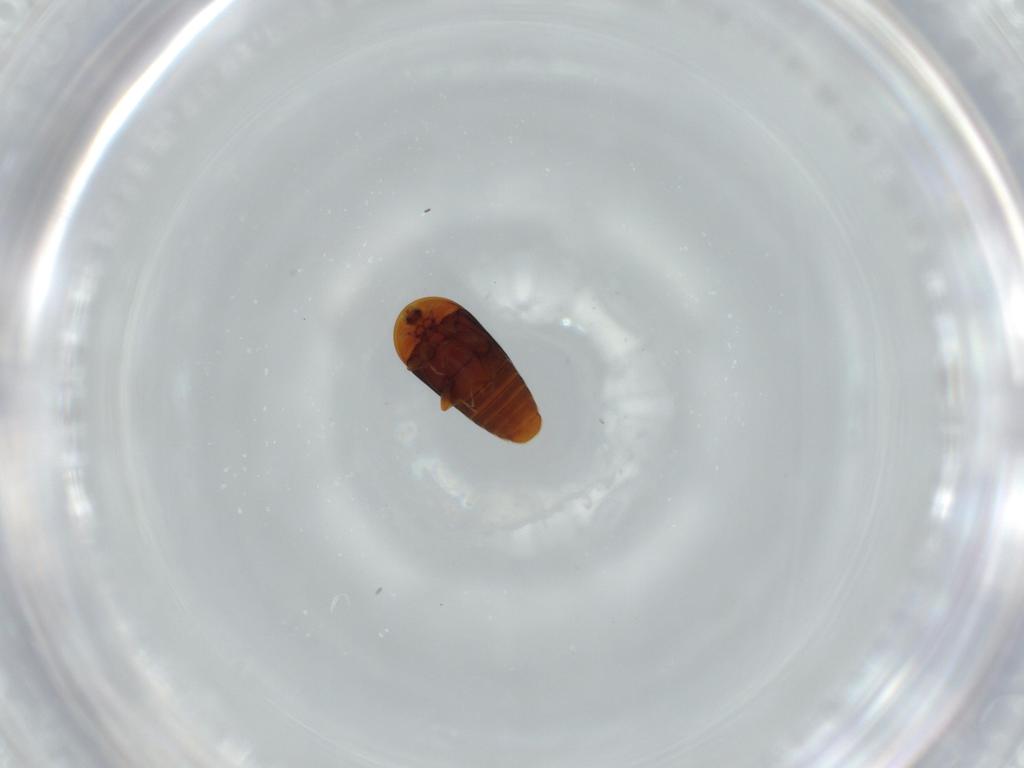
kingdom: Animalia
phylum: Arthropoda
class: Insecta
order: Coleoptera
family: Corylophidae
